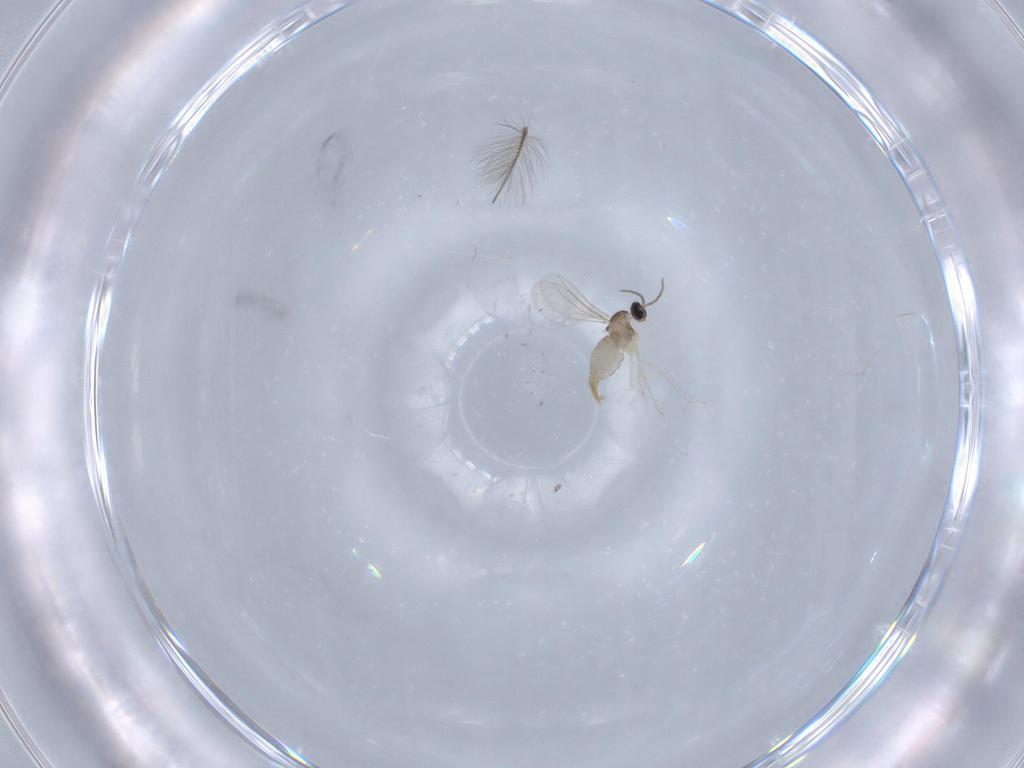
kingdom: Animalia
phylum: Arthropoda
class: Insecta
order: Diptera
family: Cecidomyiidae
